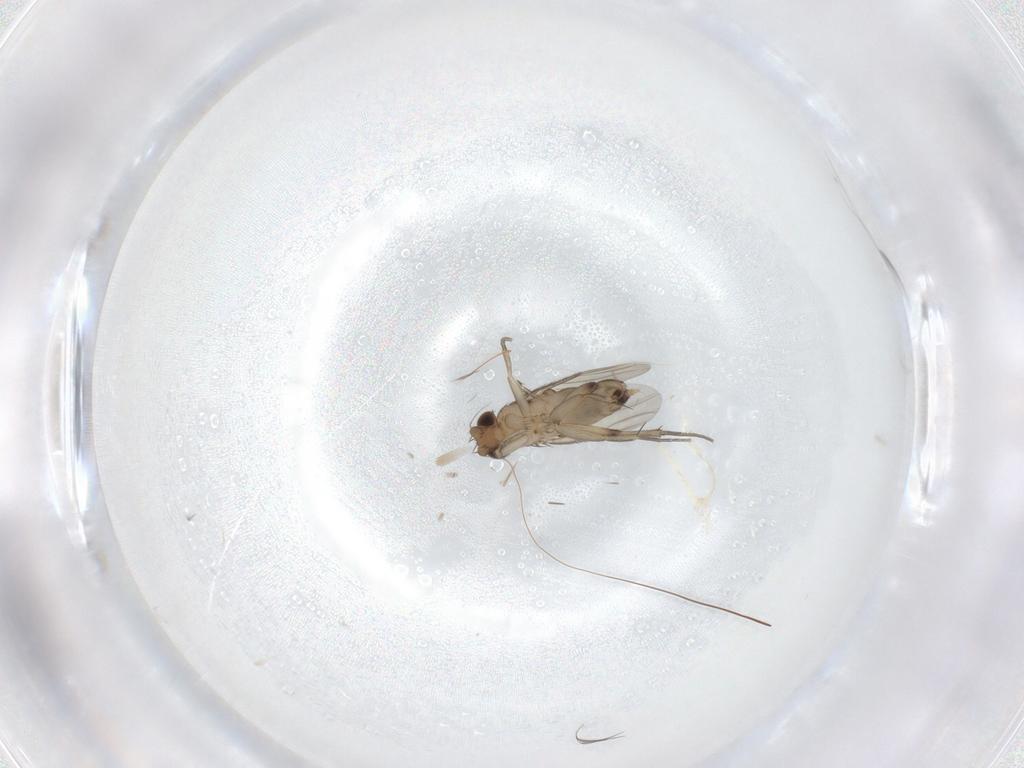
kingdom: Animalia
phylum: Arthropoda
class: Insecta
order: Diptera
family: Phoridae
